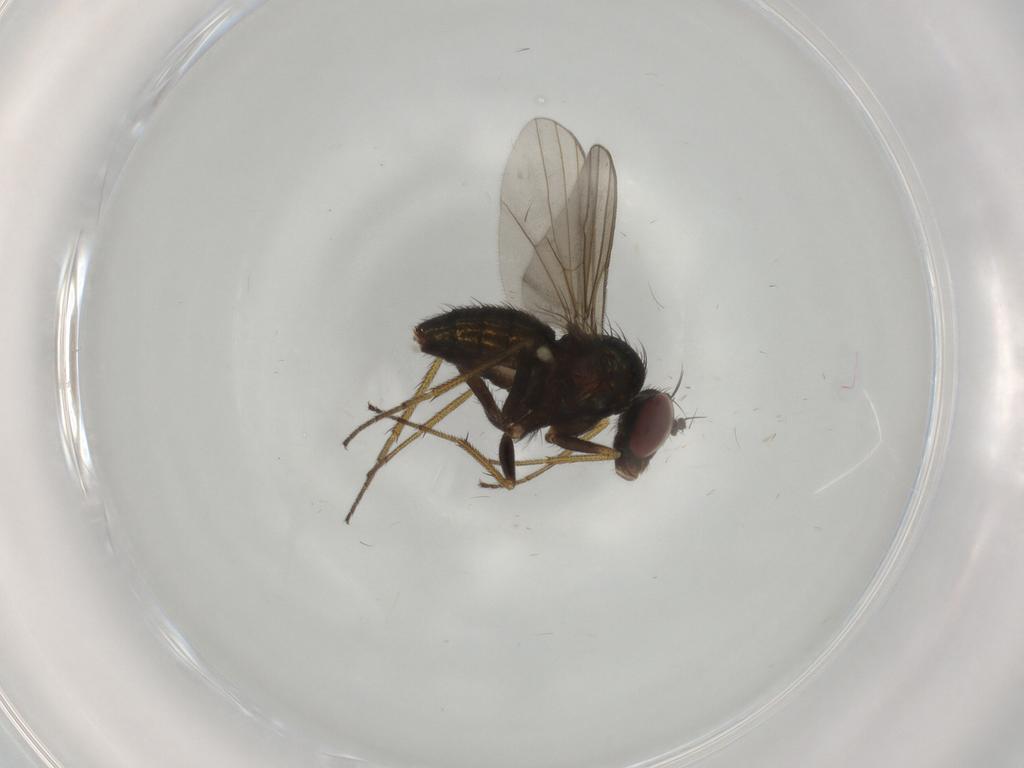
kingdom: Animalia
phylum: Arthropoda
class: Insecta
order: Diptera
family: Dolichopodidae
